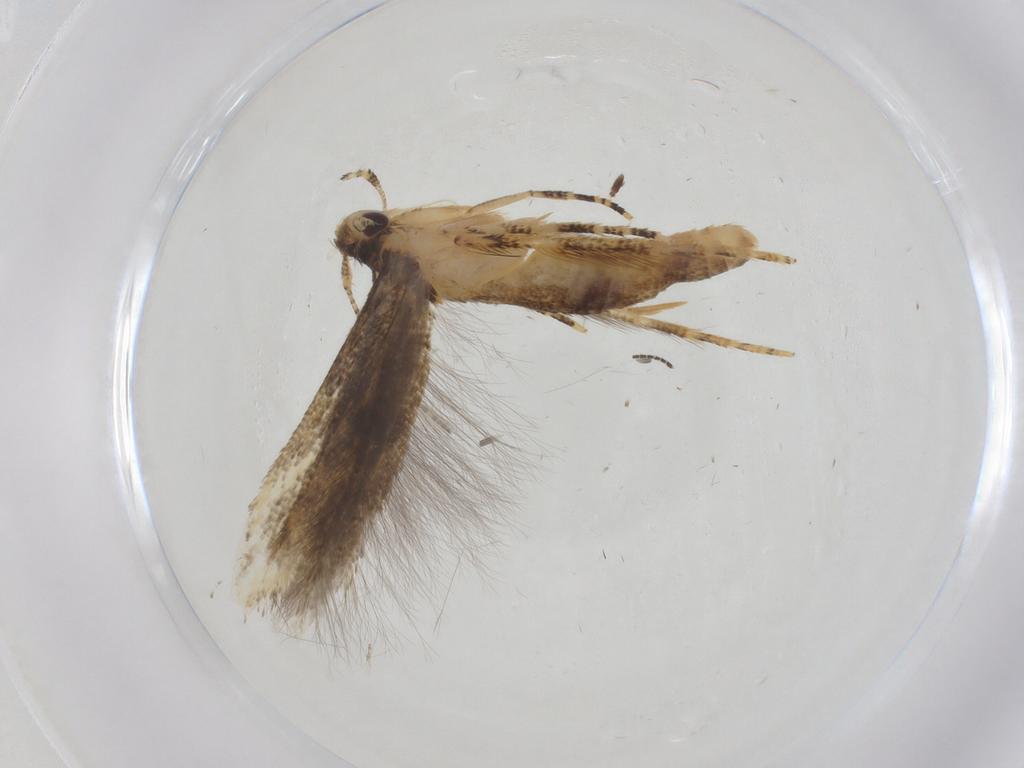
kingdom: Animalia
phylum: Arthropoda
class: Insecta
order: Lepidoptera
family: Erebidae
